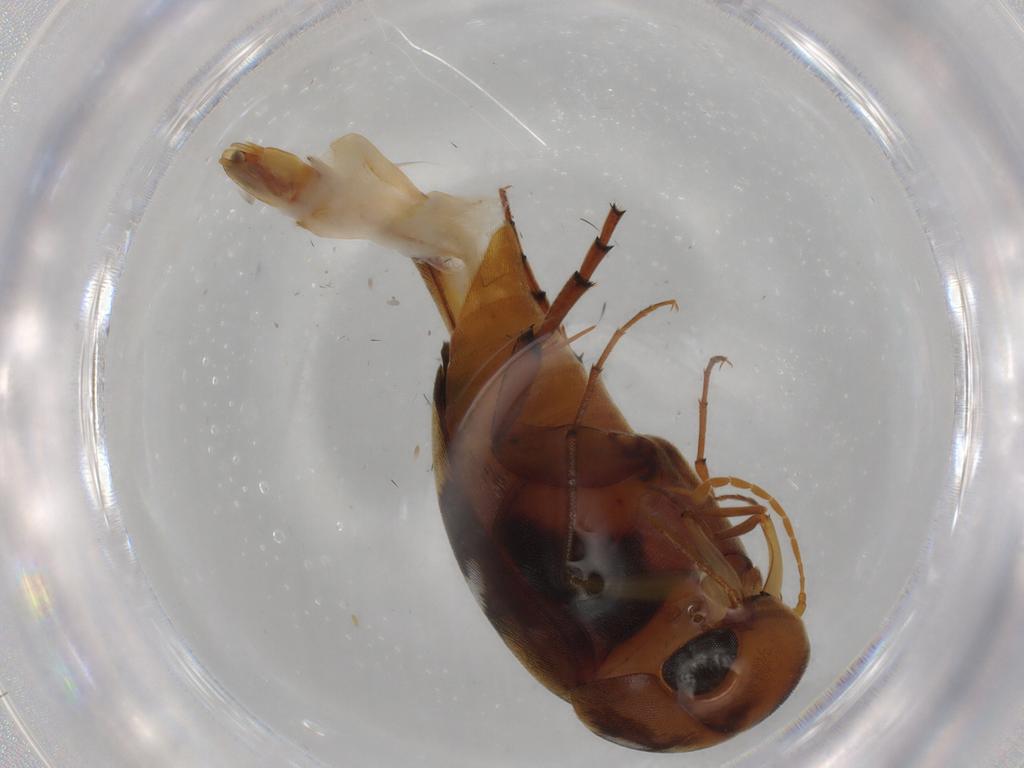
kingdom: Animalia
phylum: Arthropoda
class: Insecta
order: Coleoptera
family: Mordellidae
